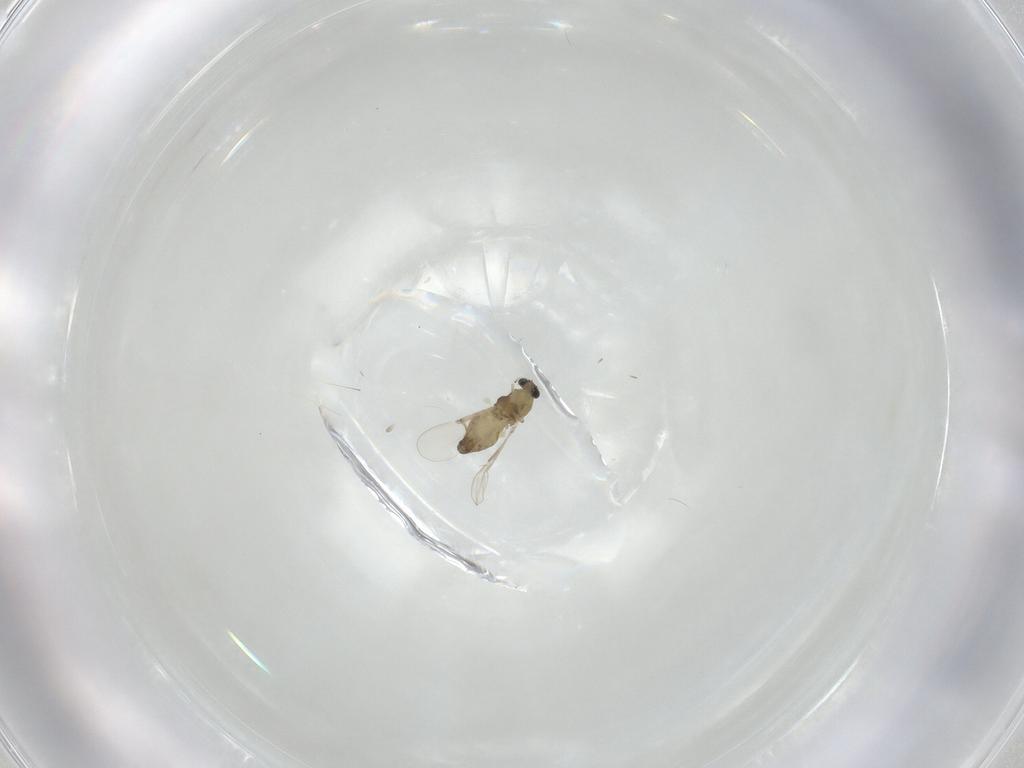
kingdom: Animalia
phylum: Arthropoda
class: Insecta
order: Diptera
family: Chironomidae
